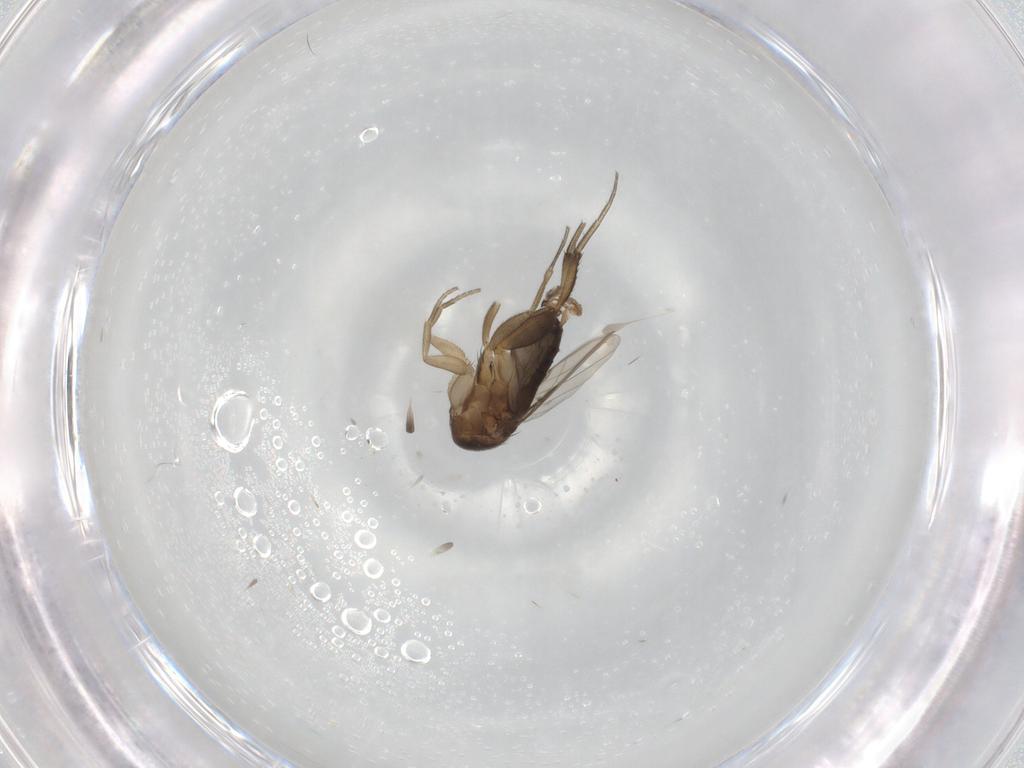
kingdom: Animalia
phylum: Arthropoda
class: Insecta
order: Diptera
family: Phoridae
